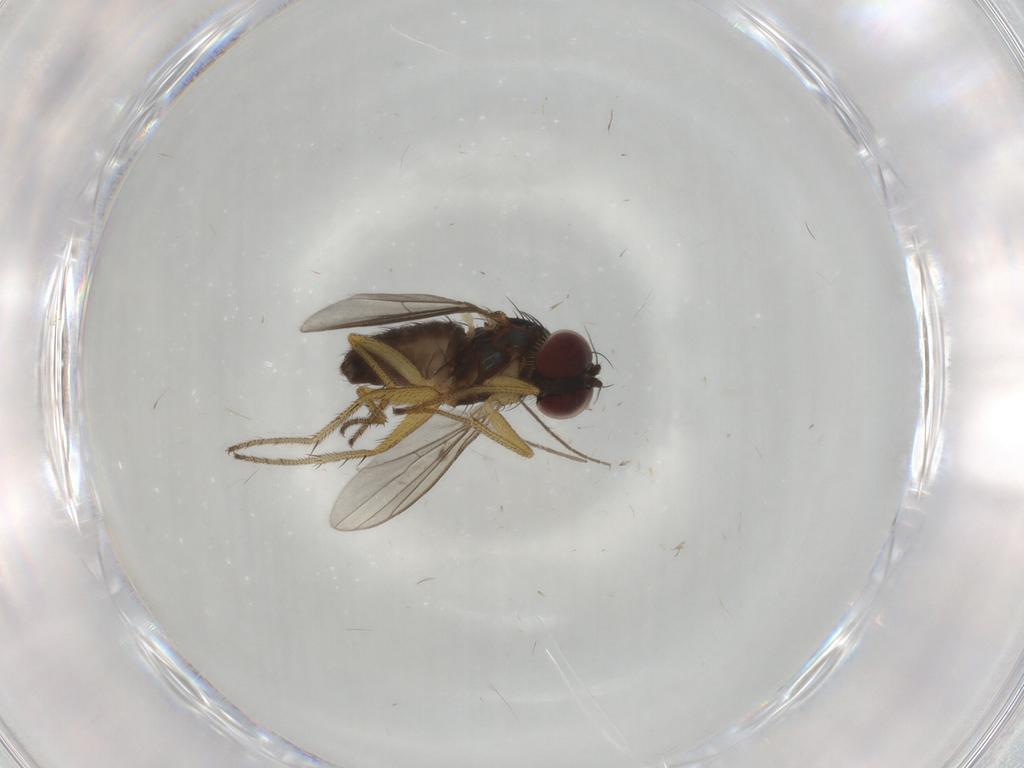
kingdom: Animalia
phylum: Arthropoda
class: Insecta
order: Diptera
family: Dolichopodidae
